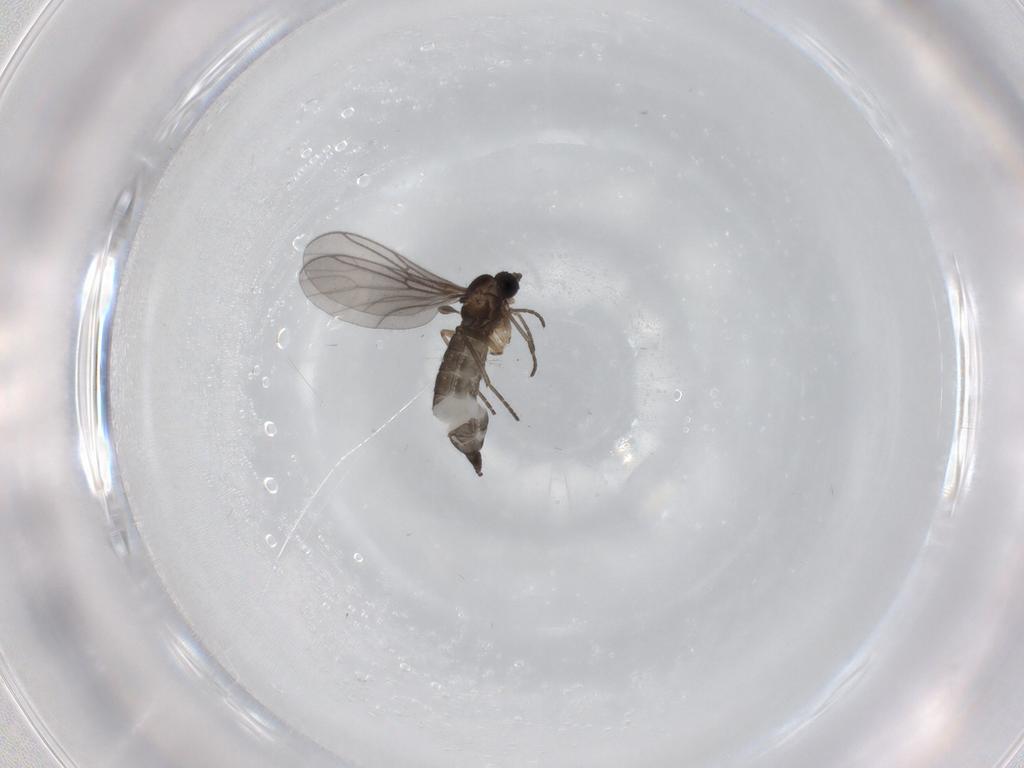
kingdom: Animalia
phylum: Arthropoda
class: Insecta
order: Diptera
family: Sciaridae
